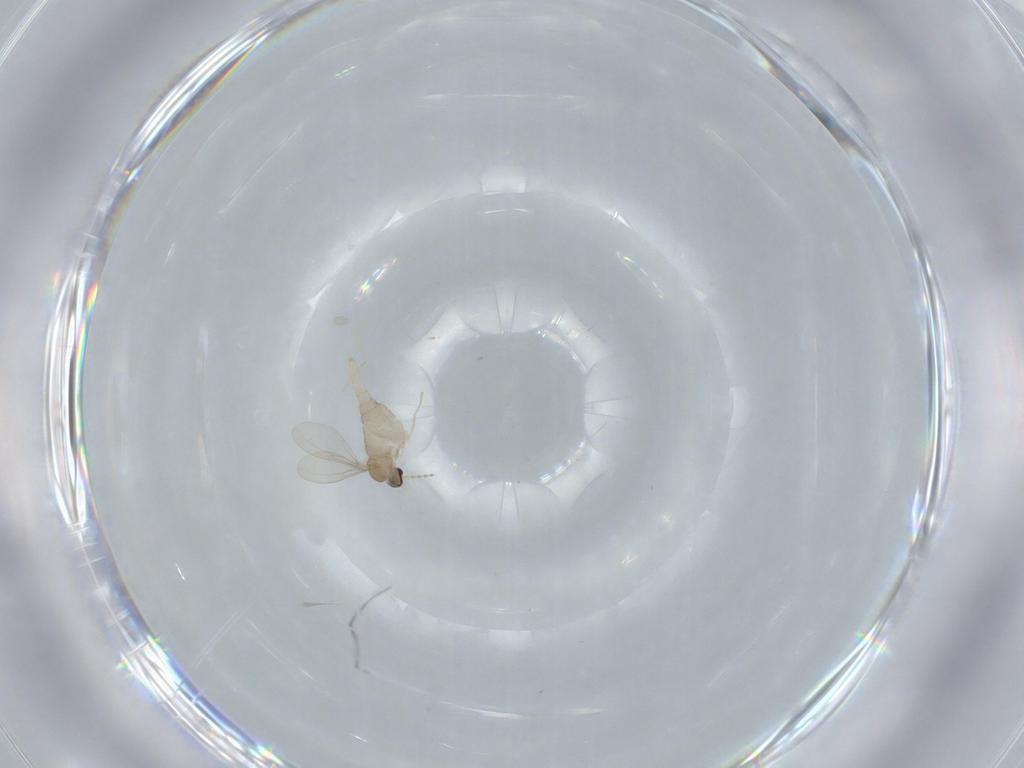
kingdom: Animalia
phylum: Arthropoda
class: Insecta
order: Diptera
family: Cecidomyiidae
